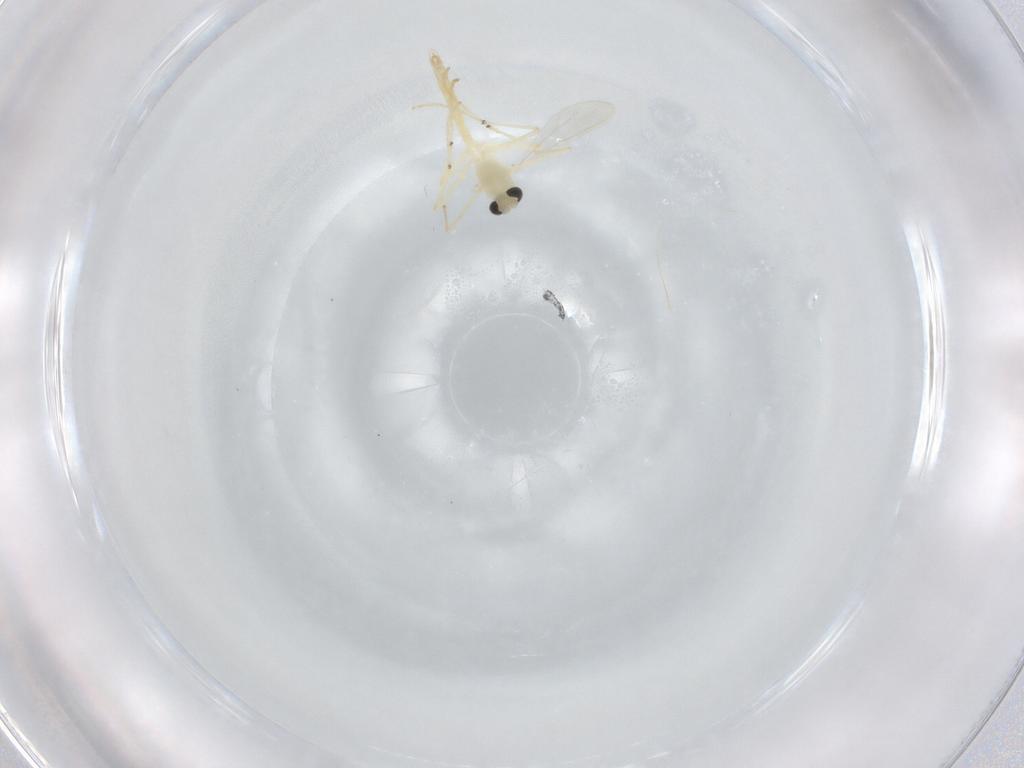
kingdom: Animalia
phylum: Arthropoda
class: Insecta
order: Diptera
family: Chironomidae
